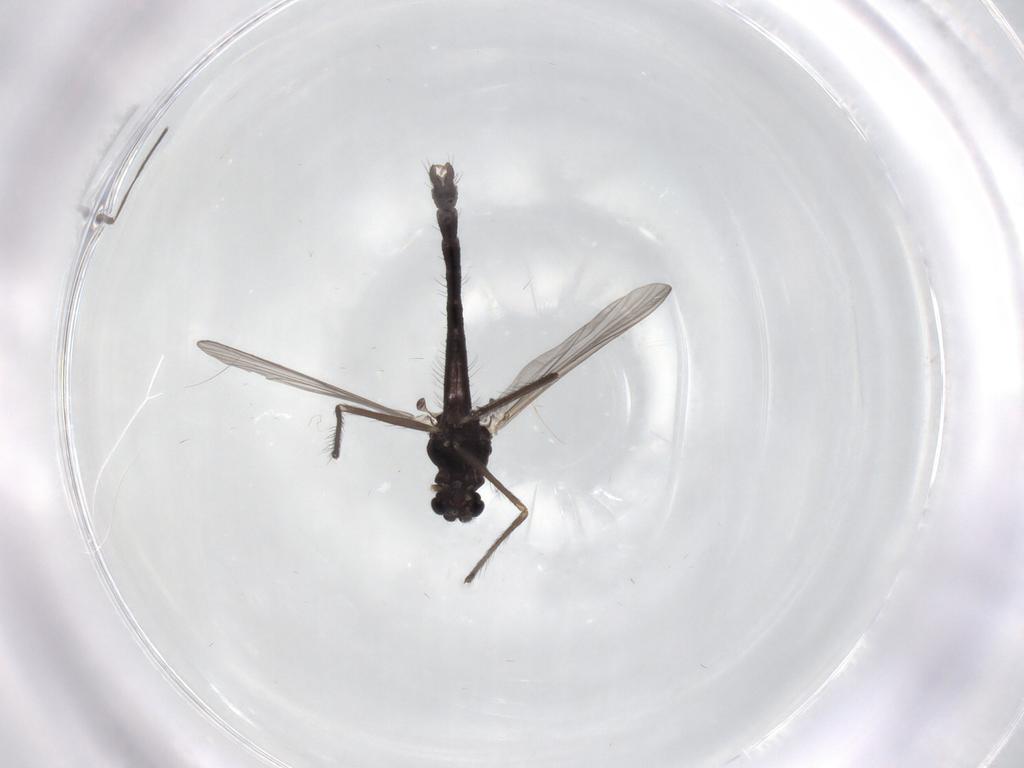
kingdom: Animalia
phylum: Arthropoda
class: Insecta
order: Diptera
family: Chironomidae
